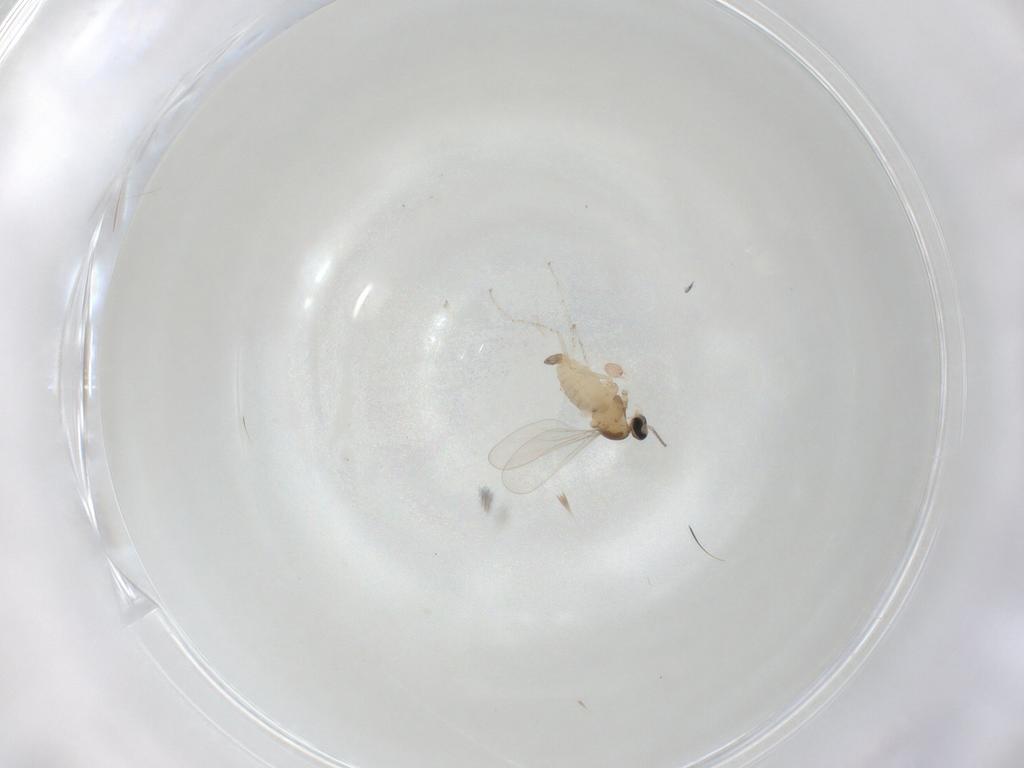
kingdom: Animalia
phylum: Arthropoda
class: Insecta
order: Diptera
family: Cecidomyiidae
